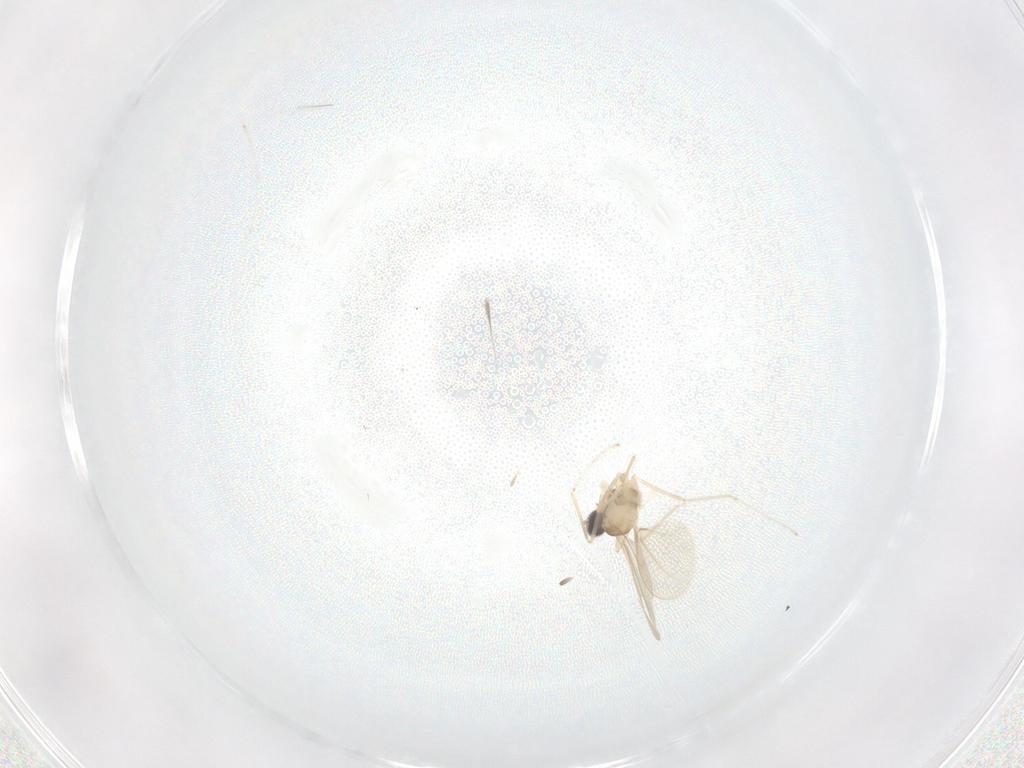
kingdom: Animalia
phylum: Arthropoda
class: Insecta
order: Diptera
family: Cecidomyiidae
